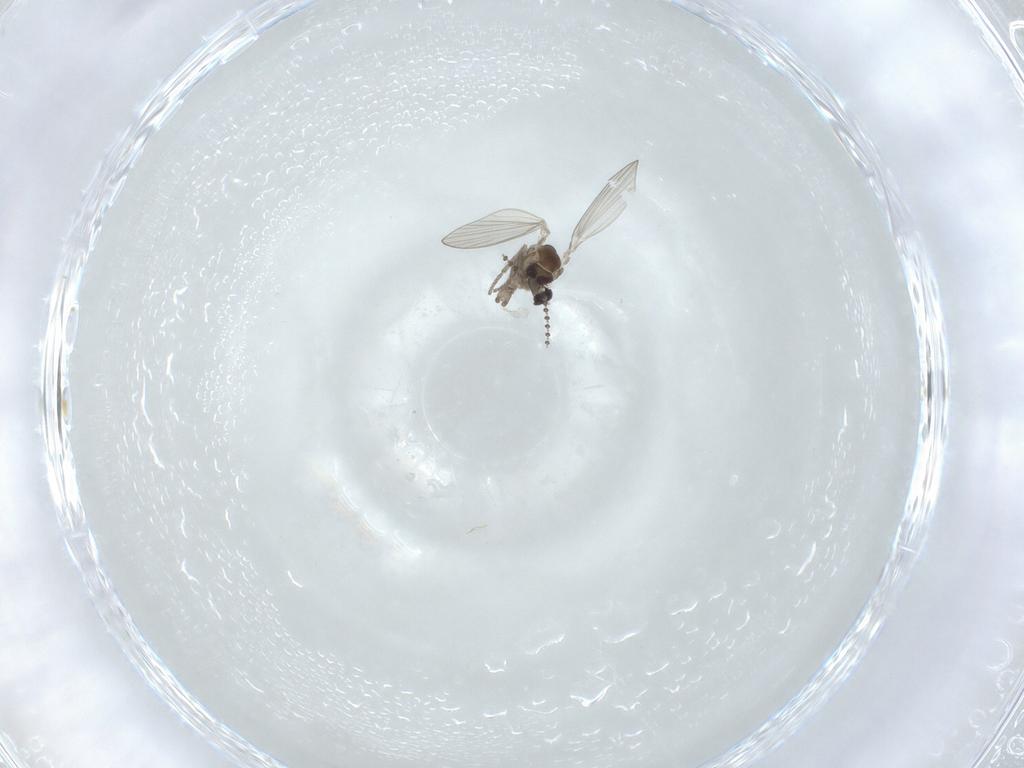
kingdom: Animalia
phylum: Arthropoda
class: Insecta
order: Diptera
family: Psychodidae
